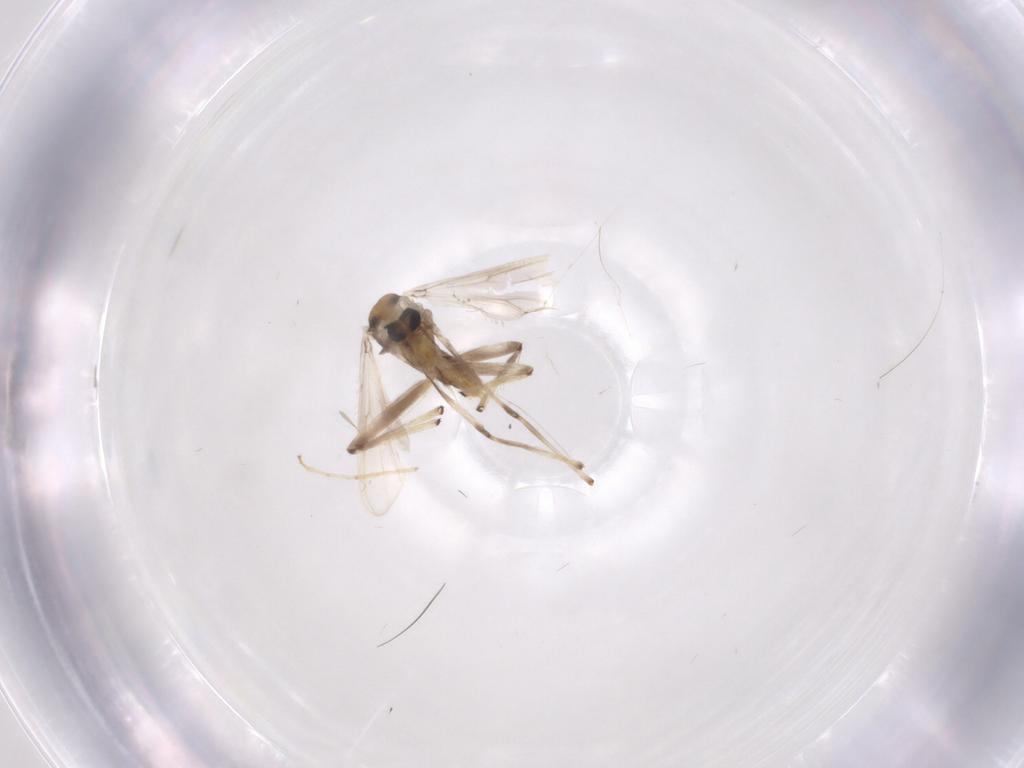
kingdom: Animalia
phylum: Arthropoda
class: Insecta
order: Diptera
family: Chironomidae
